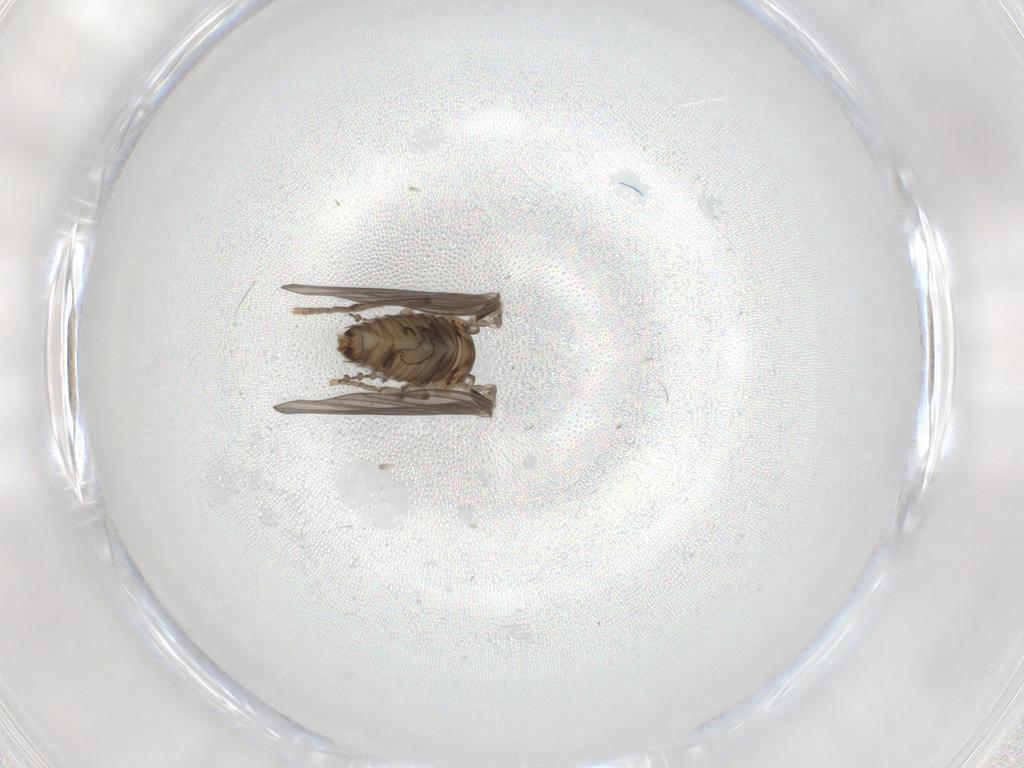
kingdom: Animalia
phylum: Arthropoda
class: Insecta
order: Diptera
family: Psychodidae
